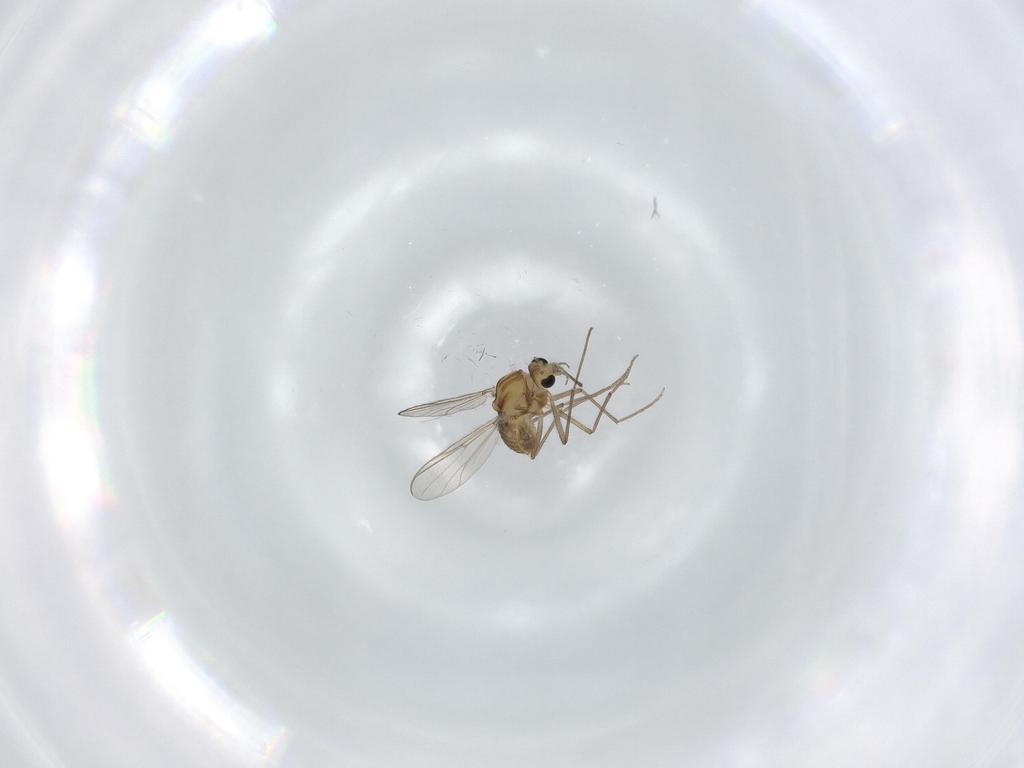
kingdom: Animalia
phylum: Arthropoda
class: Insecta
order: Diptera
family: Chironomidae
